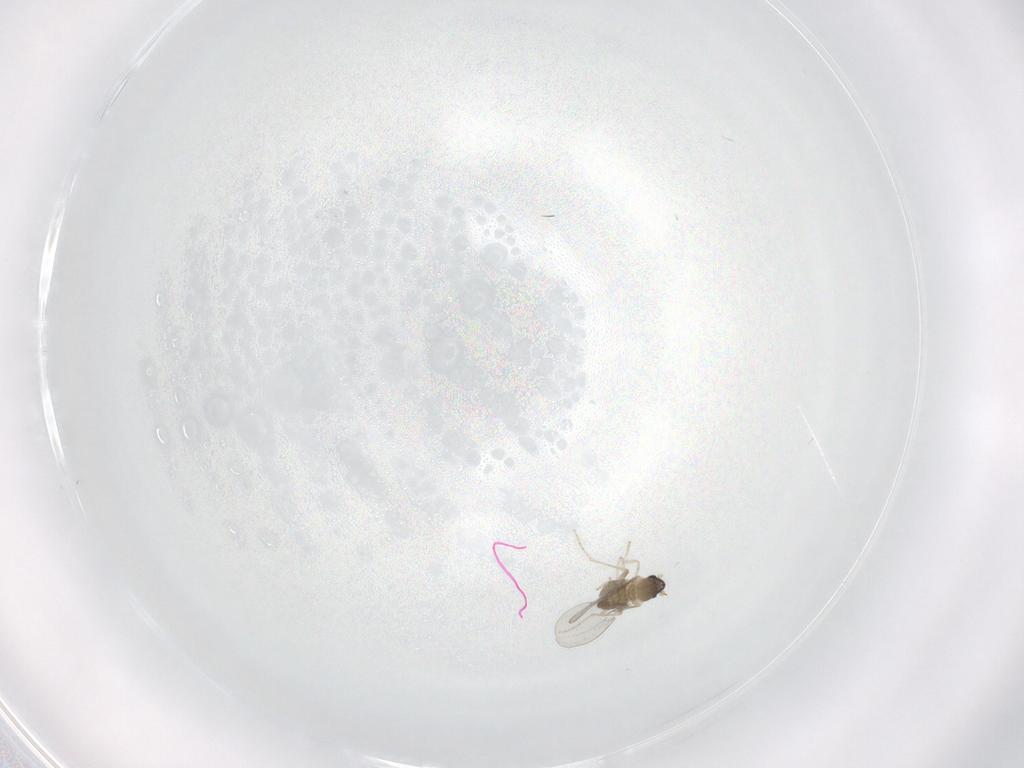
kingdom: Animalia
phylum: Arthropoda
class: Insecta
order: Diptera
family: Cecidomyiidae
